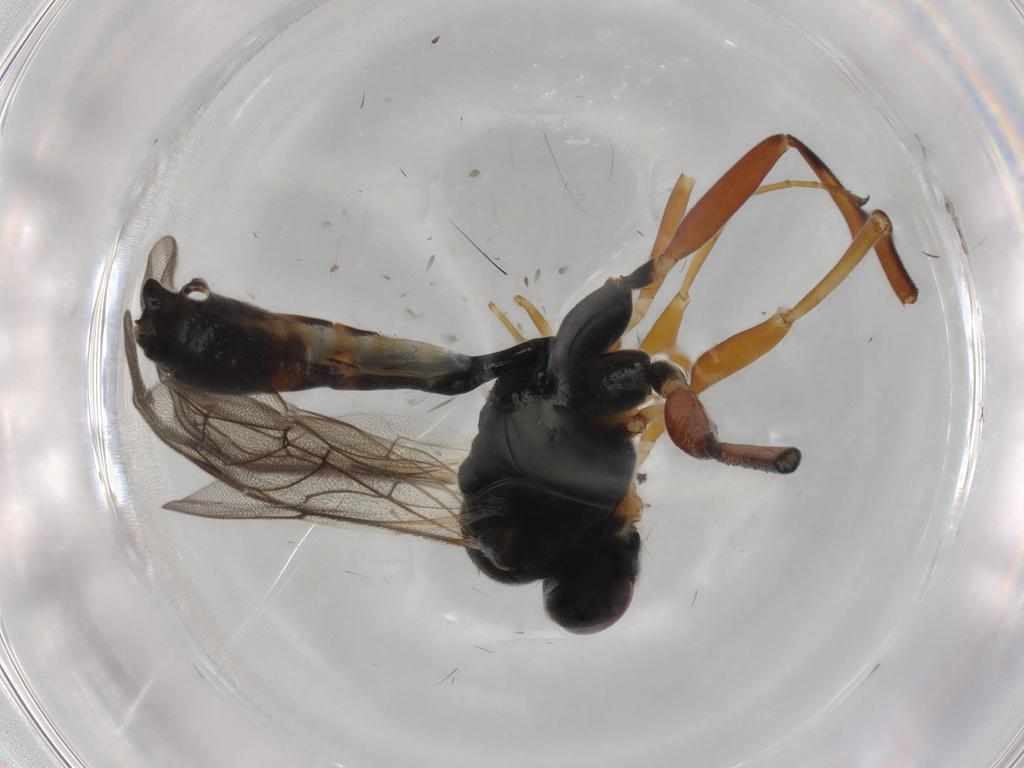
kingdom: Animalia
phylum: Arthropoda
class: Insecta
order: Hymenoptera
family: Ichneumonidae
